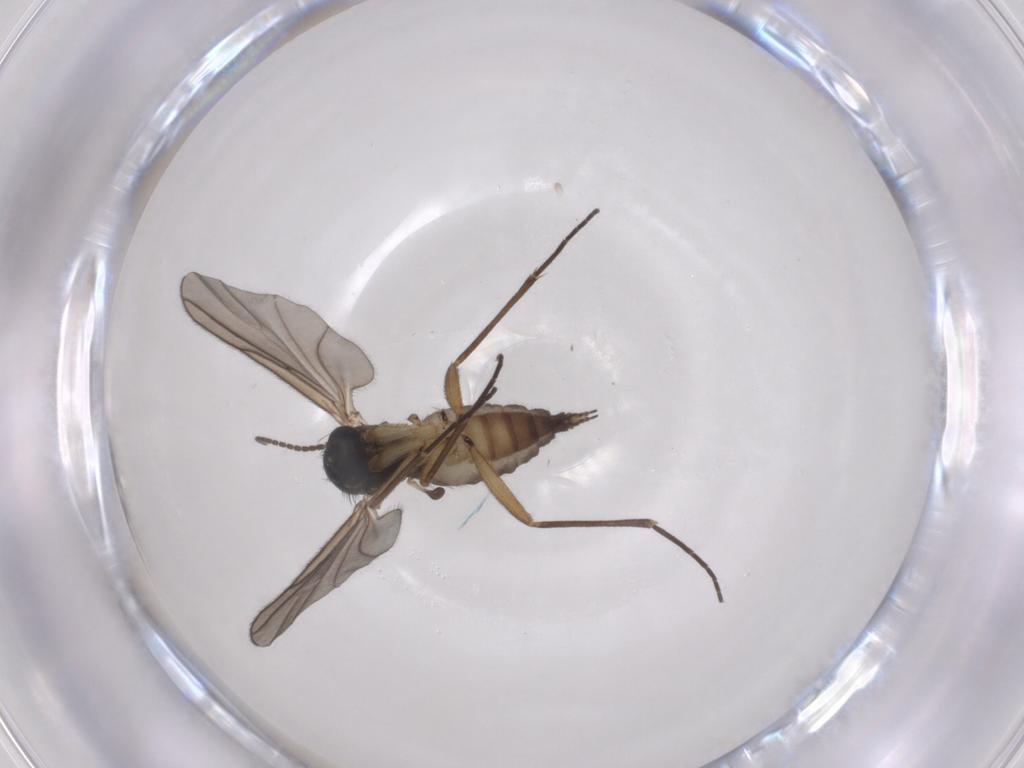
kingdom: Animalia
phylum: Arthropoda
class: Insecta
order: Diptera
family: Sciaridae
